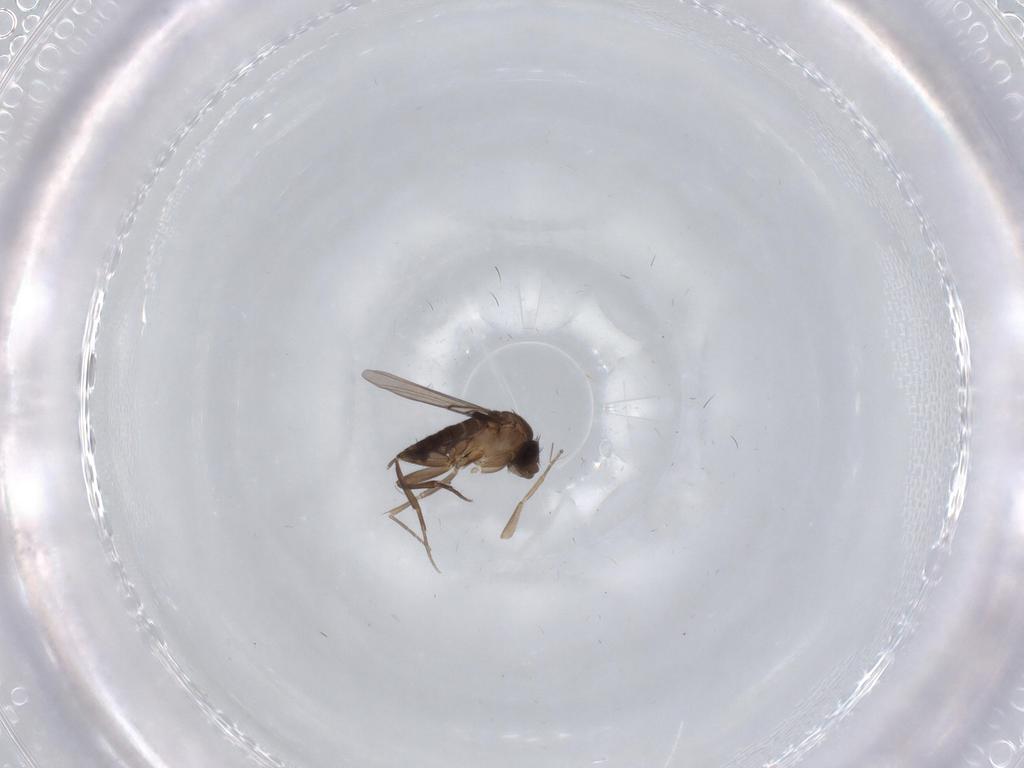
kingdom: Animalia
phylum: Arthropoda
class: Insecta
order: Diptera
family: Phoridae
